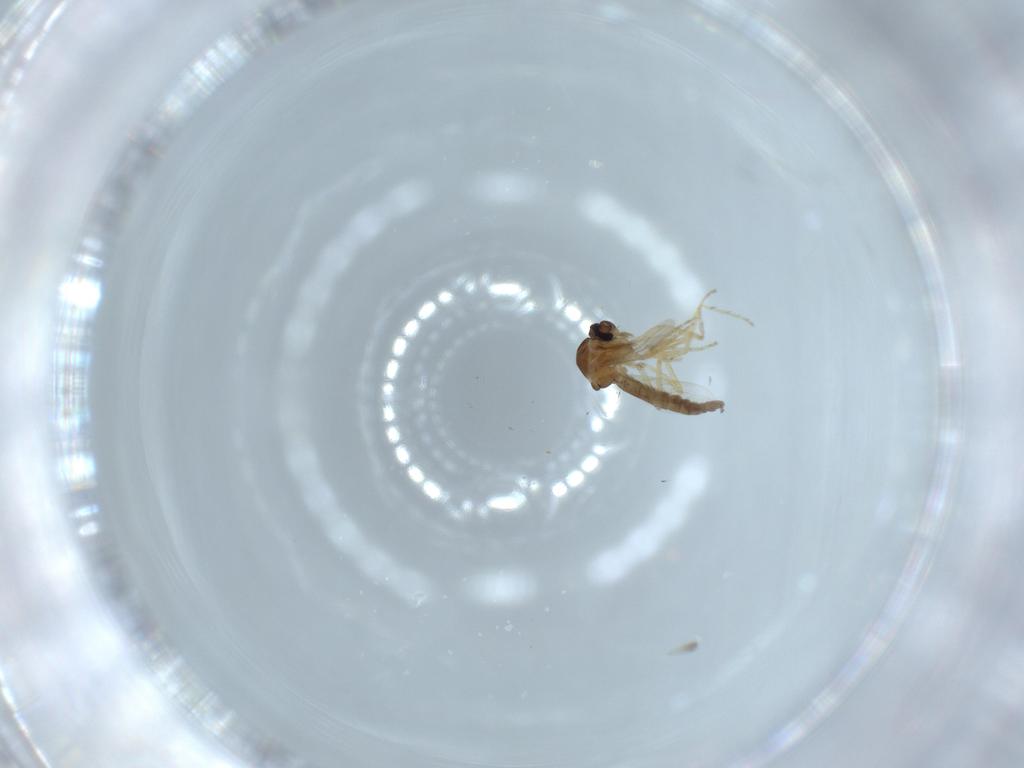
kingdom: Animalia
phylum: Arthropoda
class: Insecta
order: Diptera
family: Ceratopogonidae
